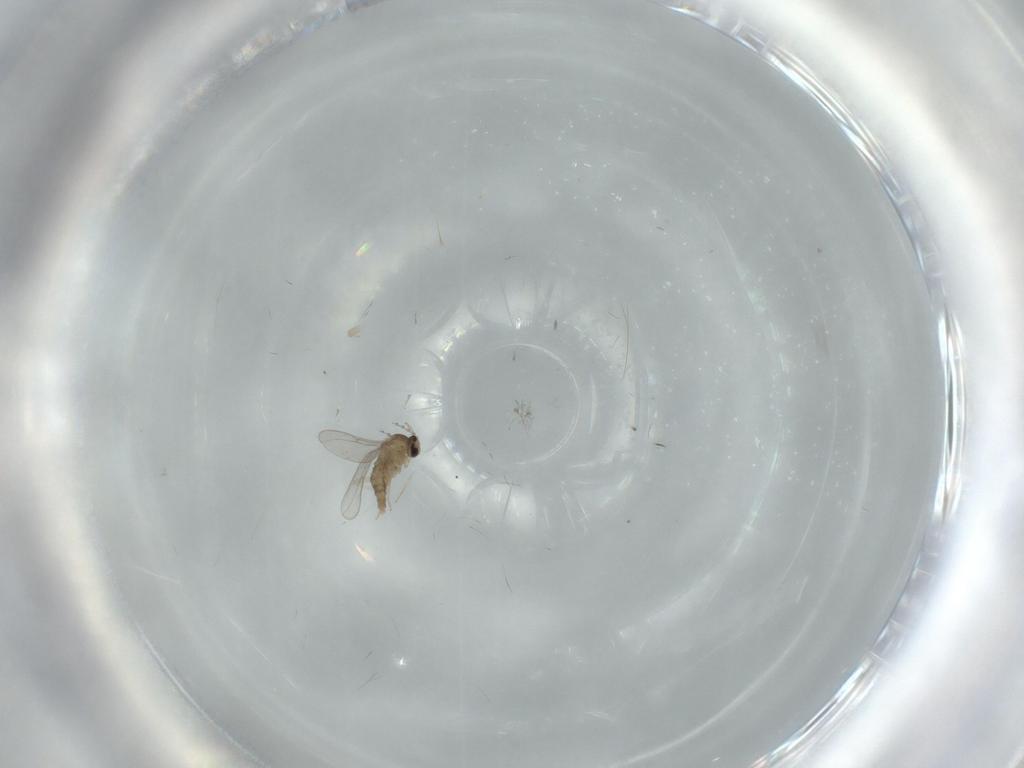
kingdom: Animalia
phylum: Arthropoda
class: Insecta
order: Diptera
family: Cecidomyiidae
